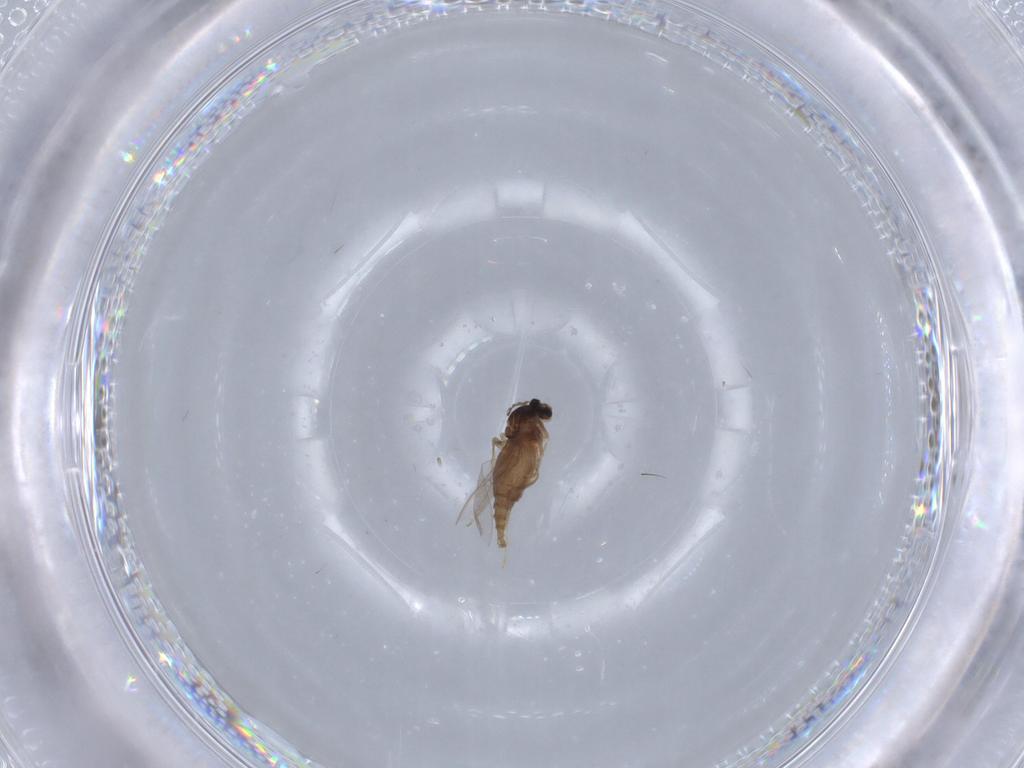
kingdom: Animalia
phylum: Arthropoda
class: Insecta
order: Diptera
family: Cecidomyiidae
